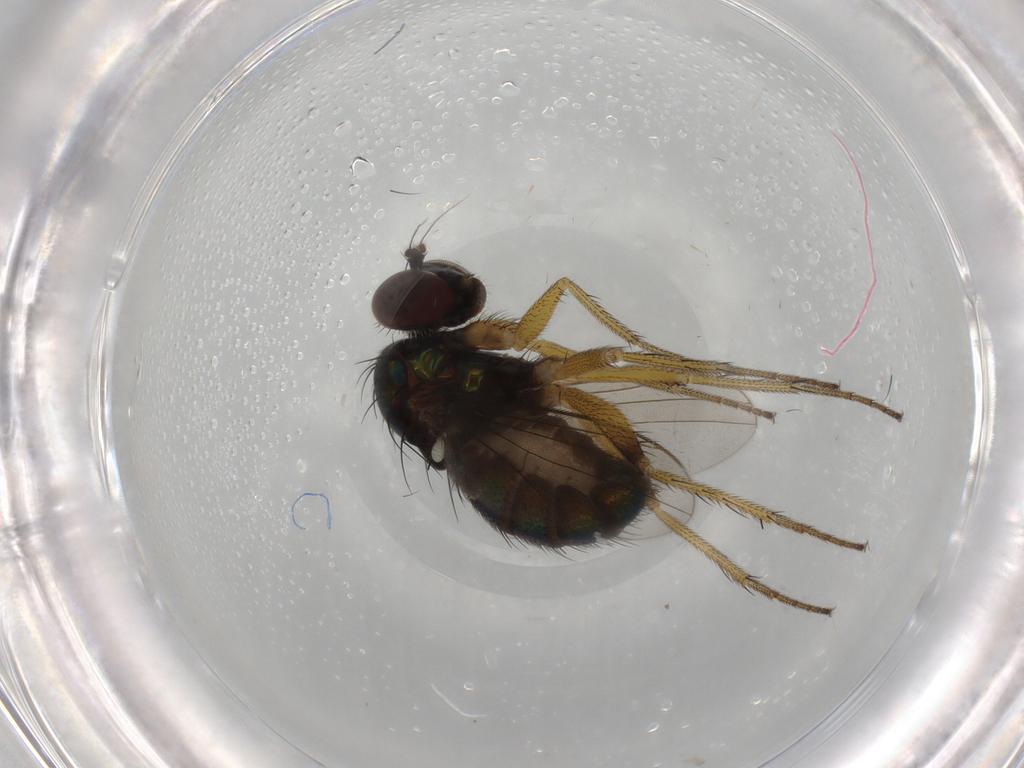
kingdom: Animalia
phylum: Arthropoda
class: Insecta
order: Diptera
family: Dolichopodidae
